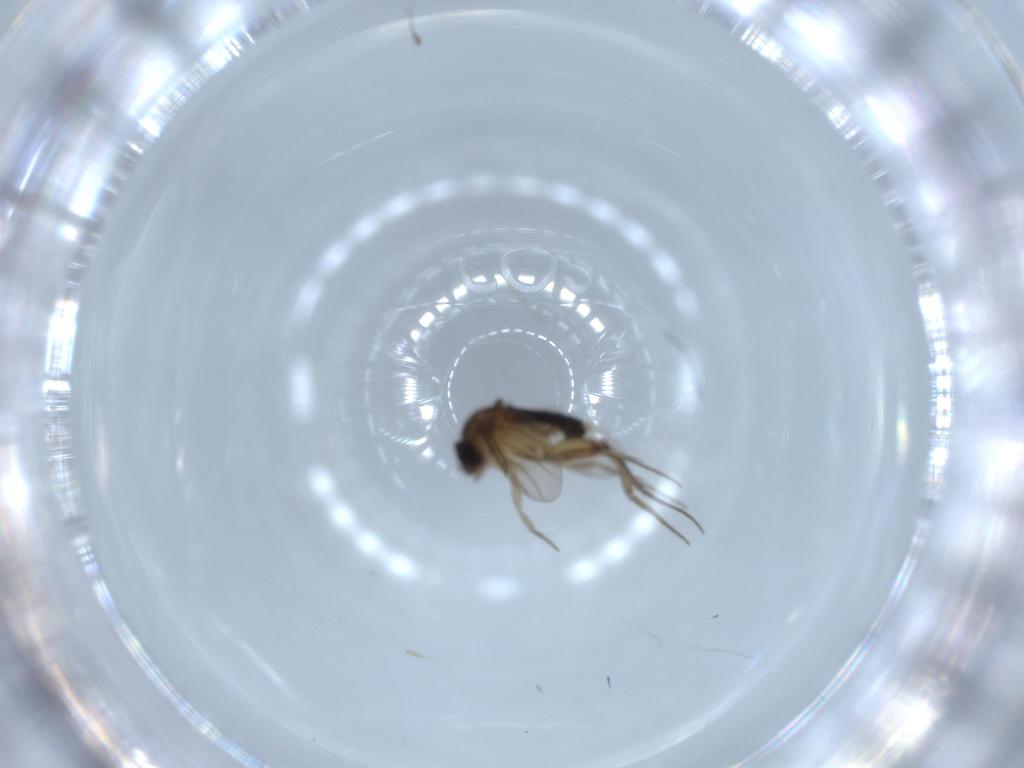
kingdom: Animalia
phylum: Arthropoda
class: Insecta
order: Diptera
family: Phoridae
